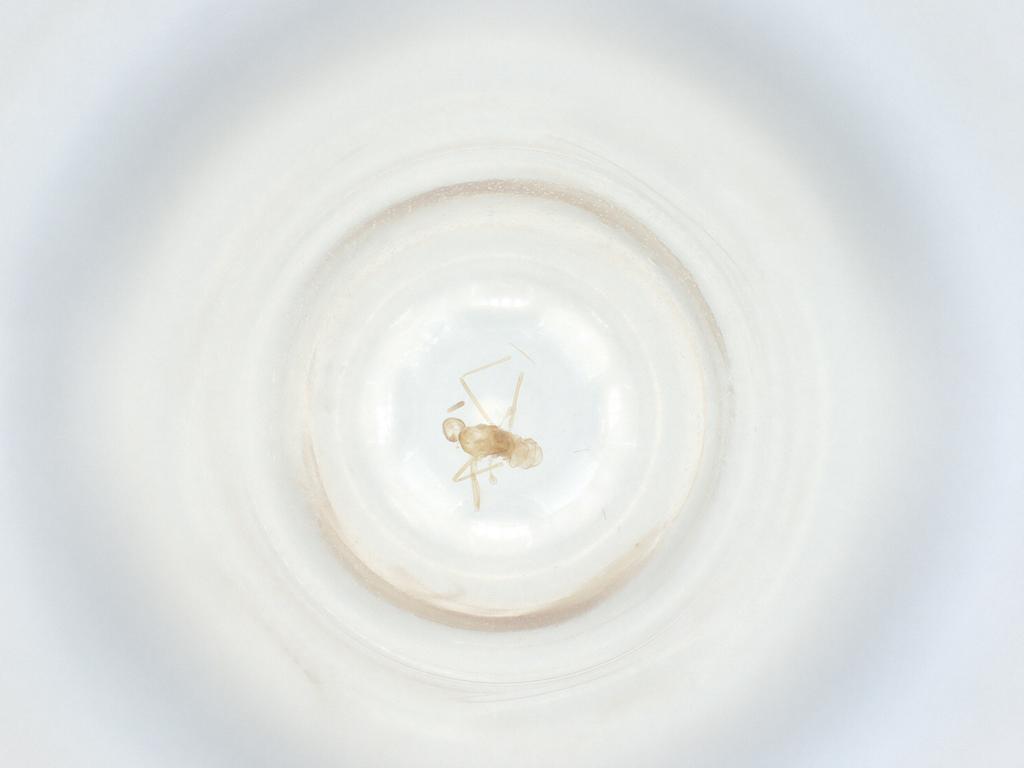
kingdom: Animalia
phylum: Arthropoda
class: Insecta
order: Diptera
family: Cecidomyiidae
